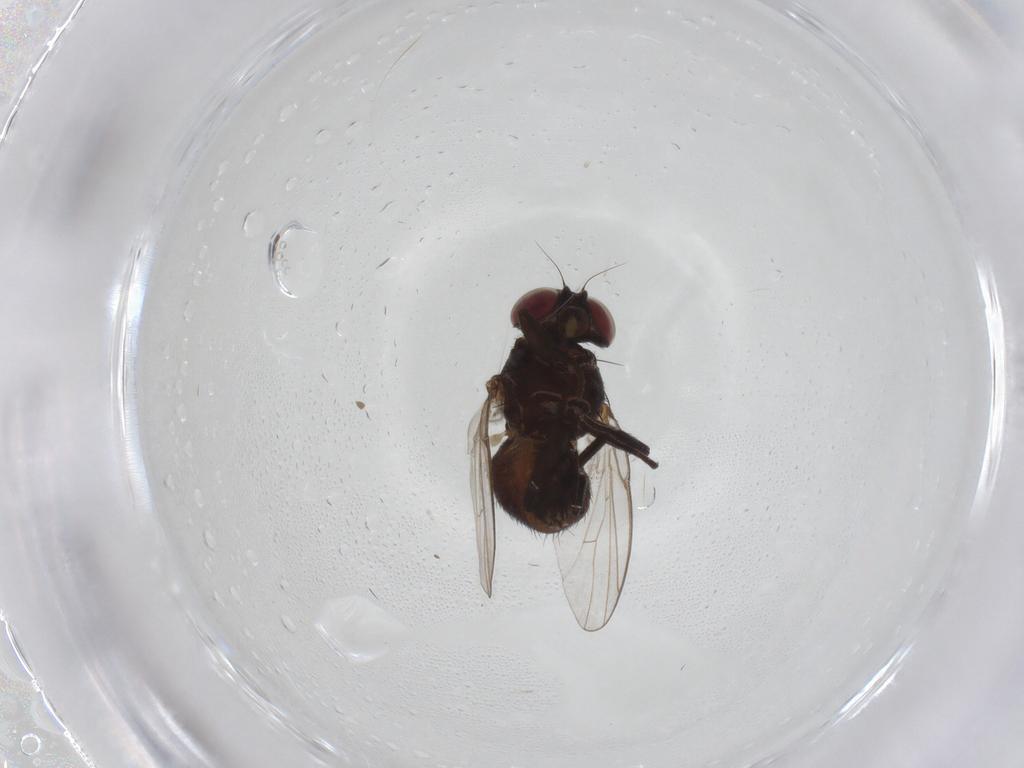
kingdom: Animalia
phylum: Arthropoda
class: Insecta
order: Diptera
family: Agromyzidae
